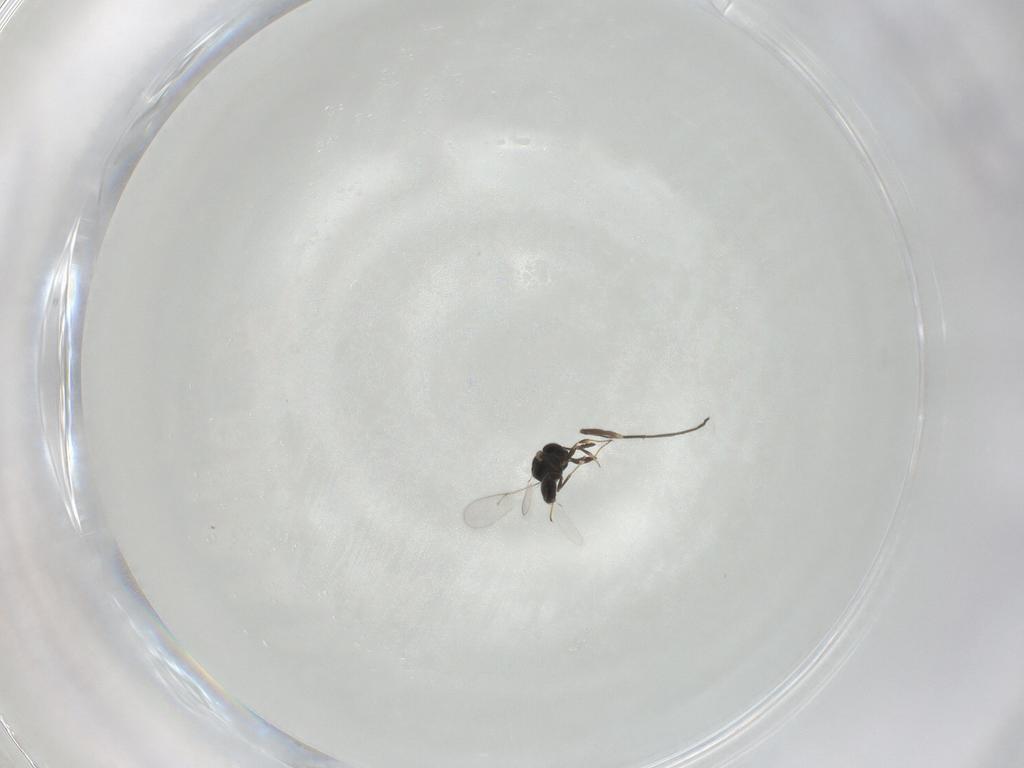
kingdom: Animalia
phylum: Arthropoda
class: Insecta
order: Hymenoptera
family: Scelionidae
